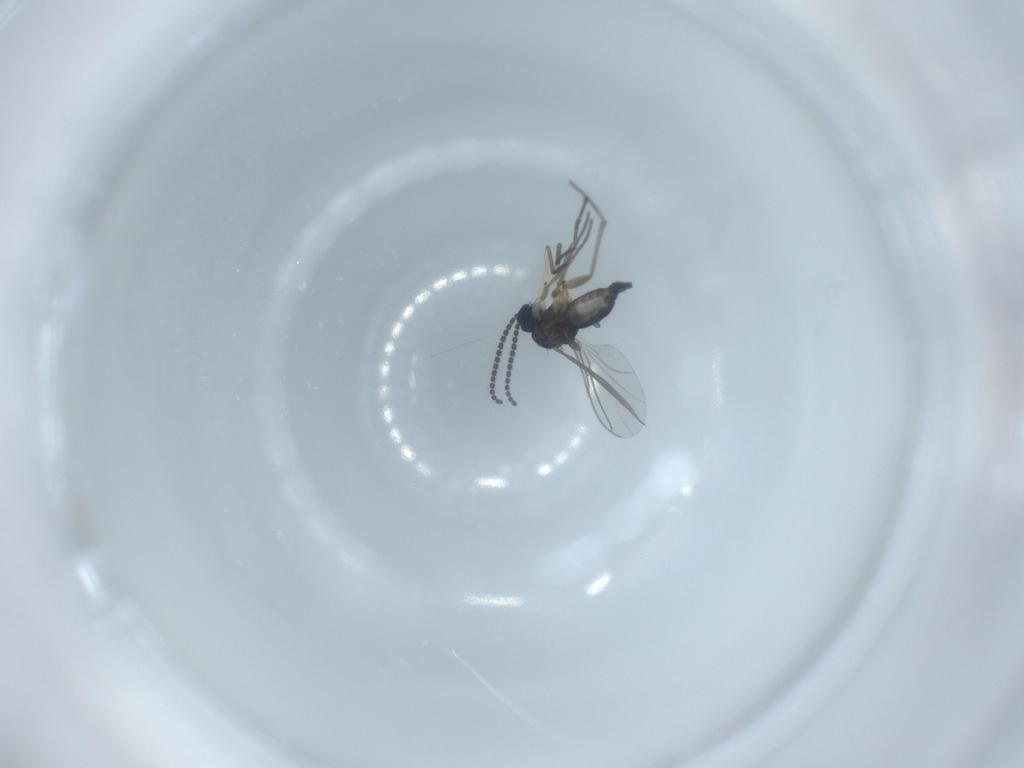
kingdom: Animalia
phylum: Arthropoda
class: Insecta
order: Diptera
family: Sciaridae
